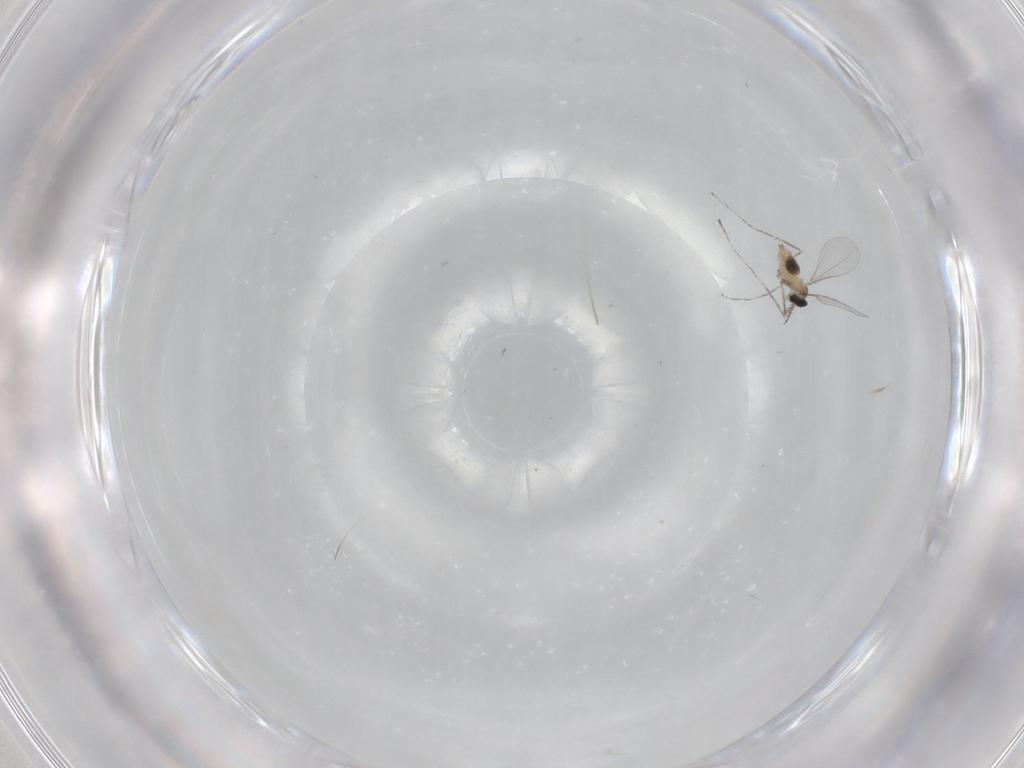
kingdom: Animalia
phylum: Arthropoda
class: Insecta
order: Diptera
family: Cecidomyiidae
